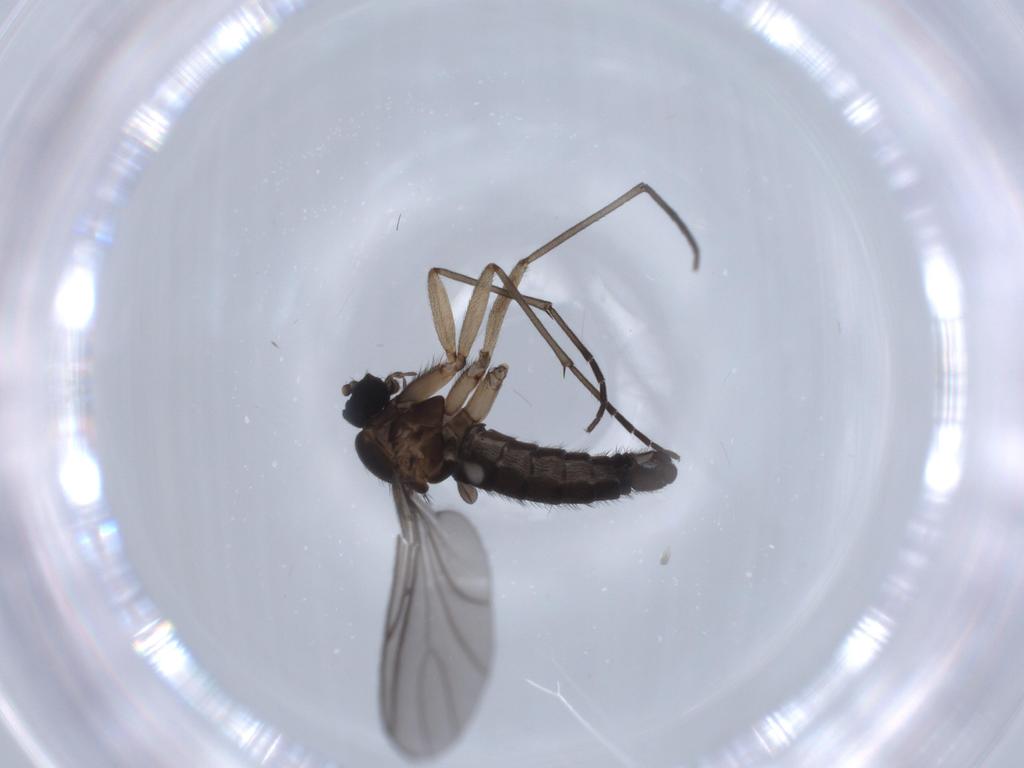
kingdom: Animalia
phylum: Arthropoda
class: Insecta
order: Diptera
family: Sciaridae
